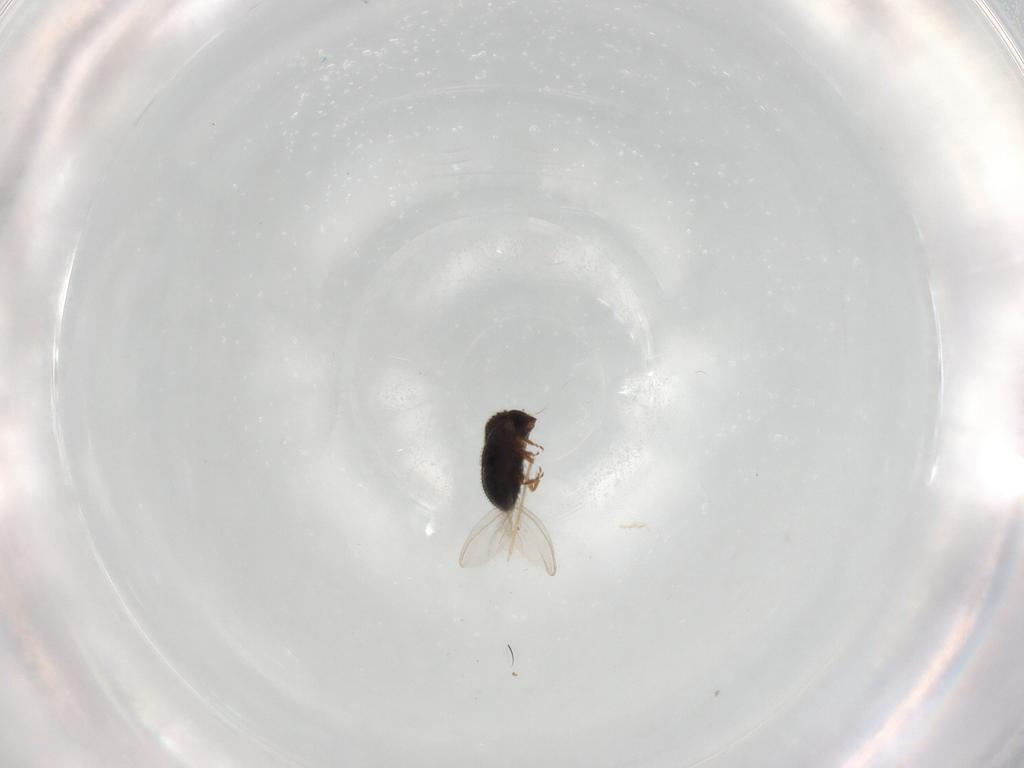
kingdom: Animalia
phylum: Arthropoda
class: Insecta
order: Coleoptera
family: Curculionidae
